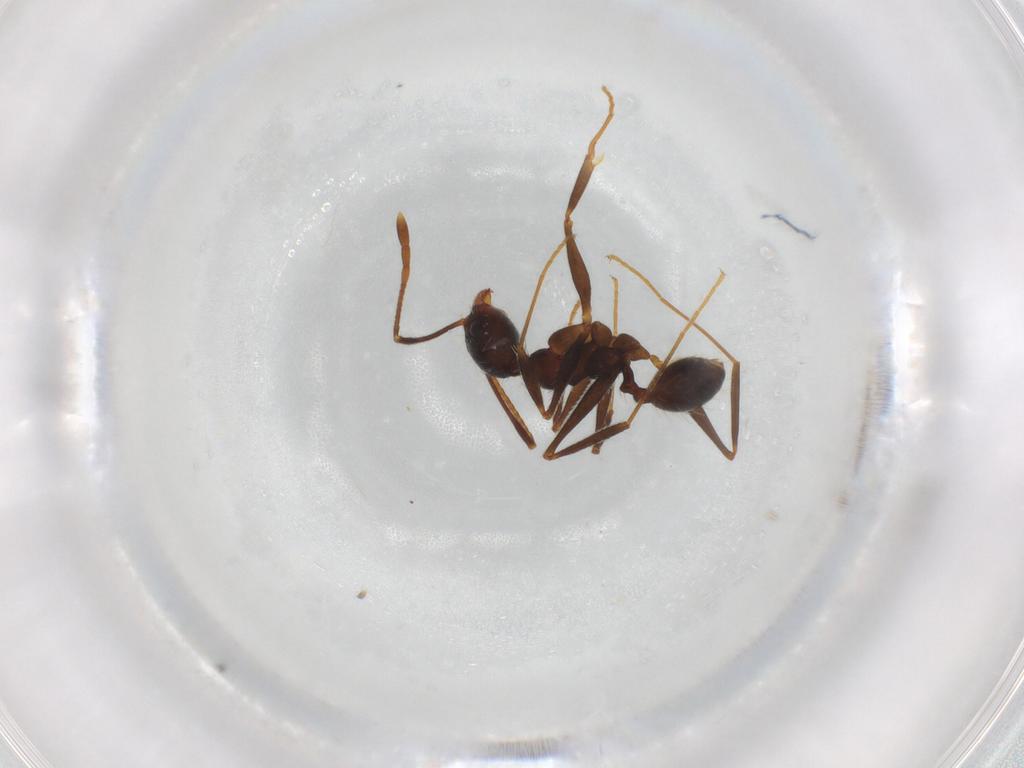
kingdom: Animalia
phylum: Arthropoda
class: Insecta
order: Hymenoptera
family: Formicidae
